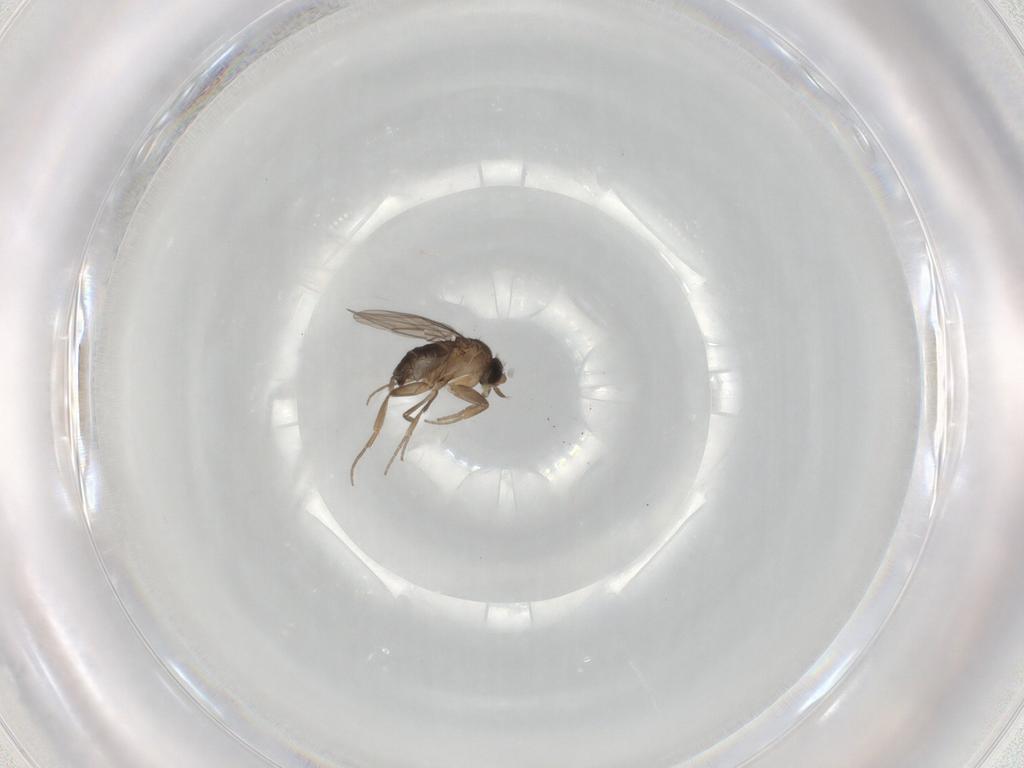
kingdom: Animalia
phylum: Arthropoda
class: Insecta
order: Diptera
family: Phoridae
